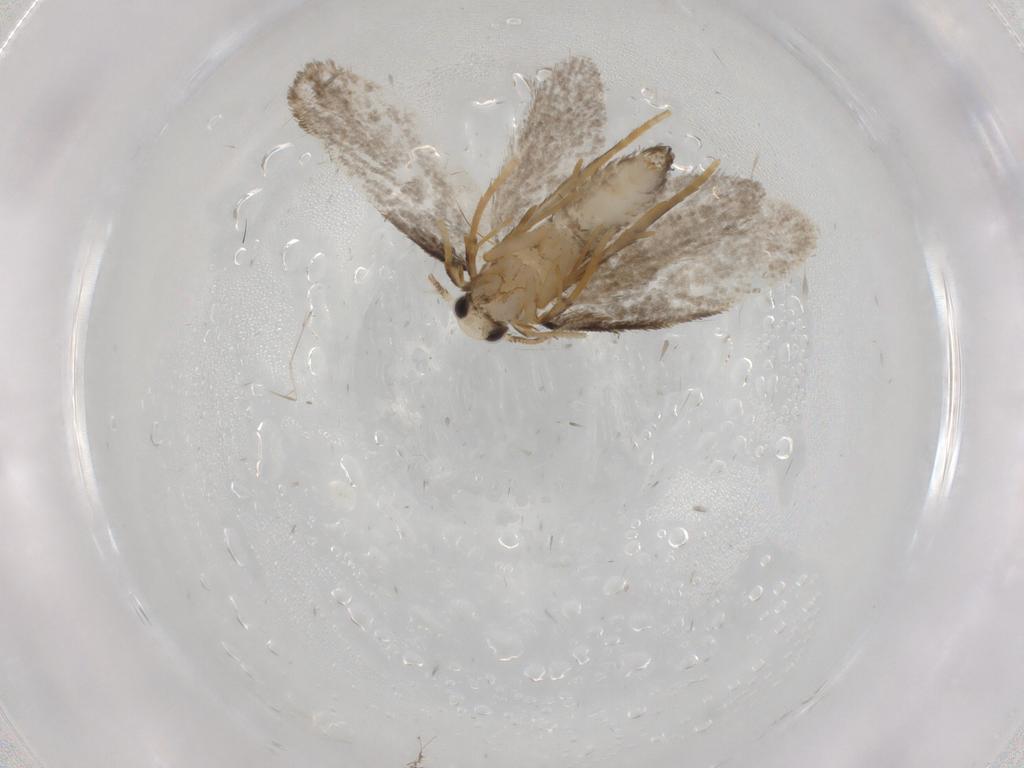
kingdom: Animalia
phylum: Arthropoda
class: Insecta
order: Lepidoptera
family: Psychidae
